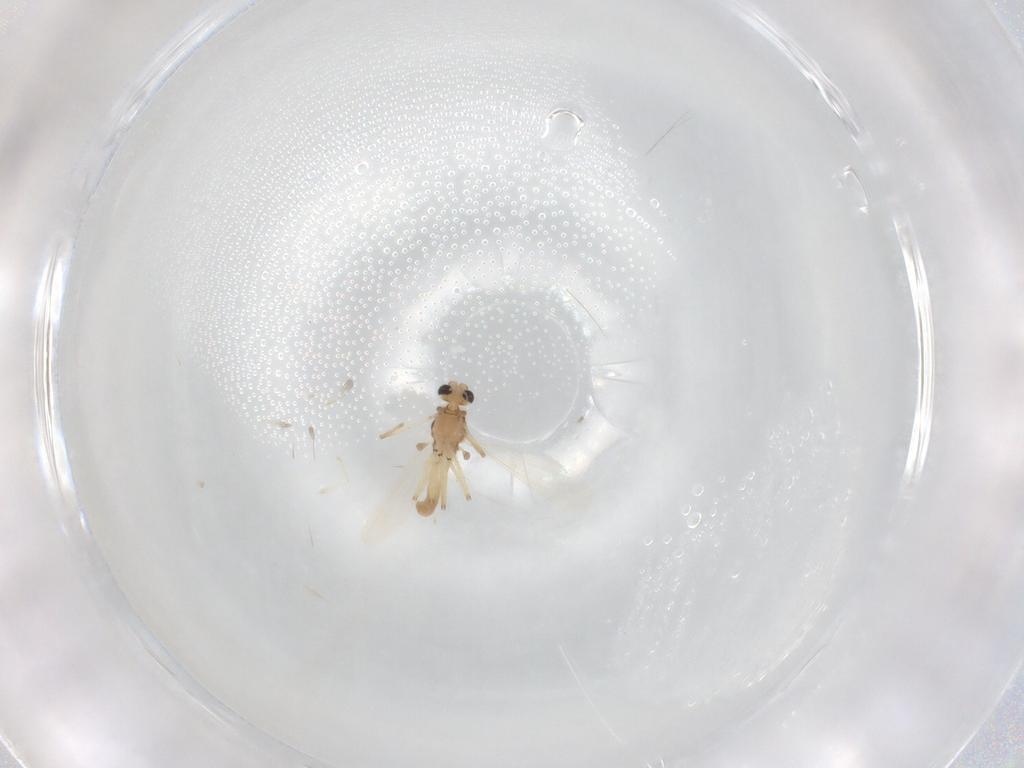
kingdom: Animalia
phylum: Arthropoda
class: Insecta
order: Diptera
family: Chironomidae
